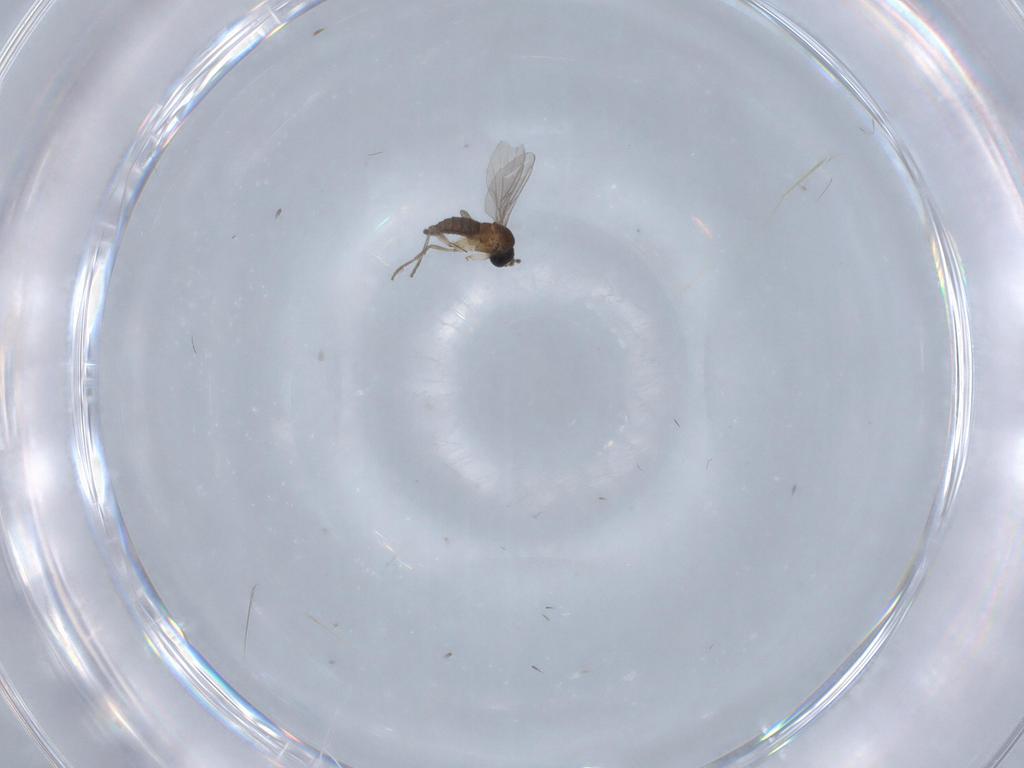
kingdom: Animalia
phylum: Arthropoda
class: Insecta
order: Diptera
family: Sciaridae
